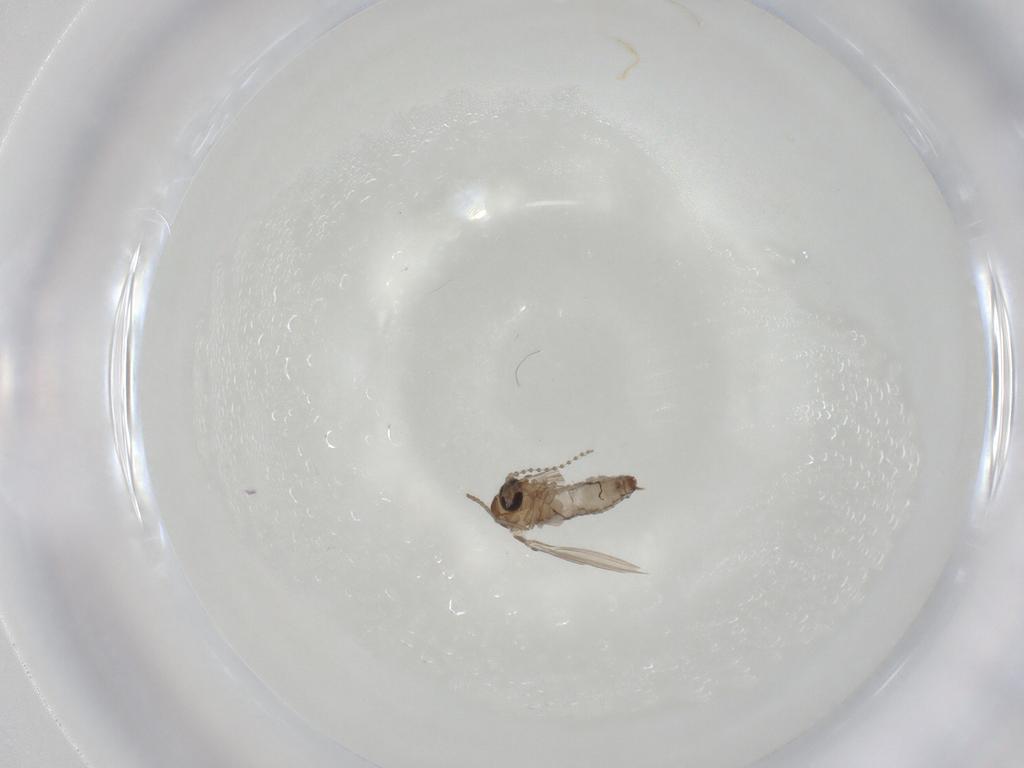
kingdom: Animalia
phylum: Arthropoda
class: Insecta
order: Diptera
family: Psychodidae
